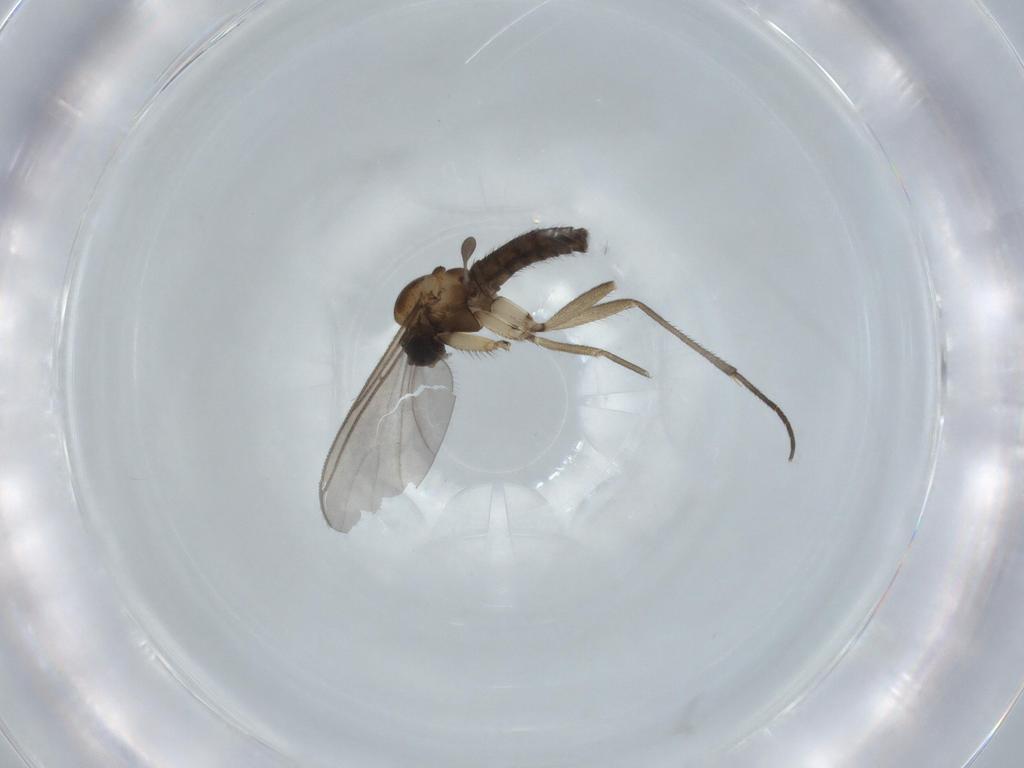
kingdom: Animalia
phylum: Arthropoda
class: Insecta
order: Diptera
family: Sciaridae
